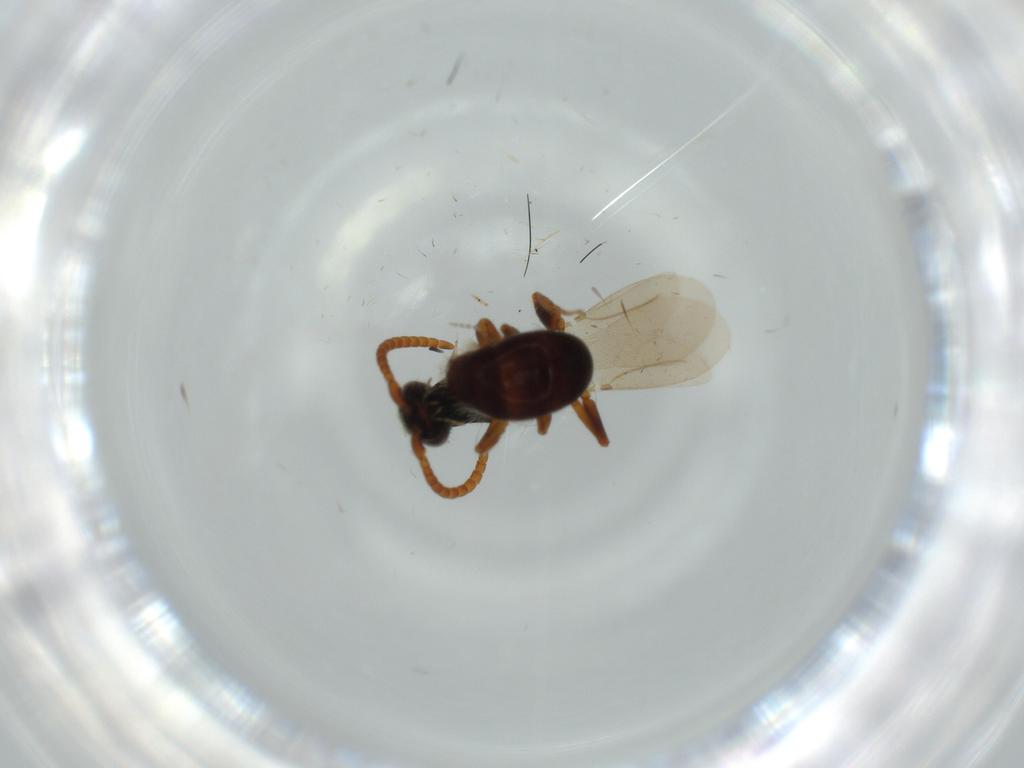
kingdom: Animalia
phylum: Arthropoda
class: Insecta
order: Hymenoptera
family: Bethylidae
